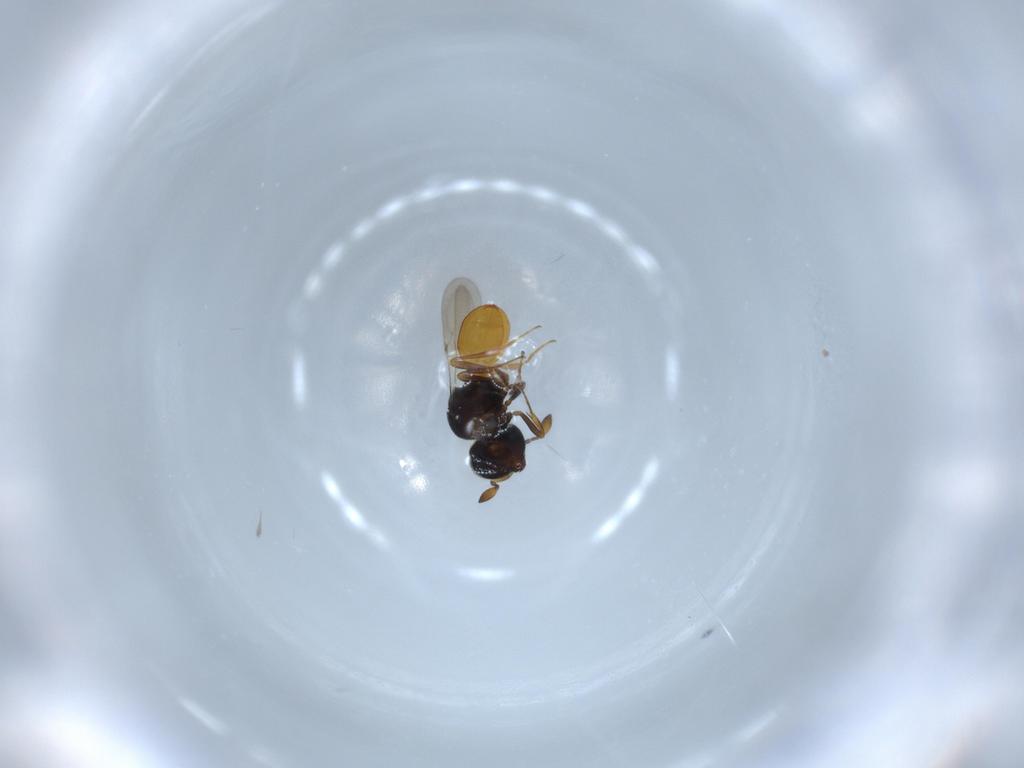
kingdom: Animalia
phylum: Arthropoda
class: Insecta
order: Hymenoptera
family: Scelionidae
